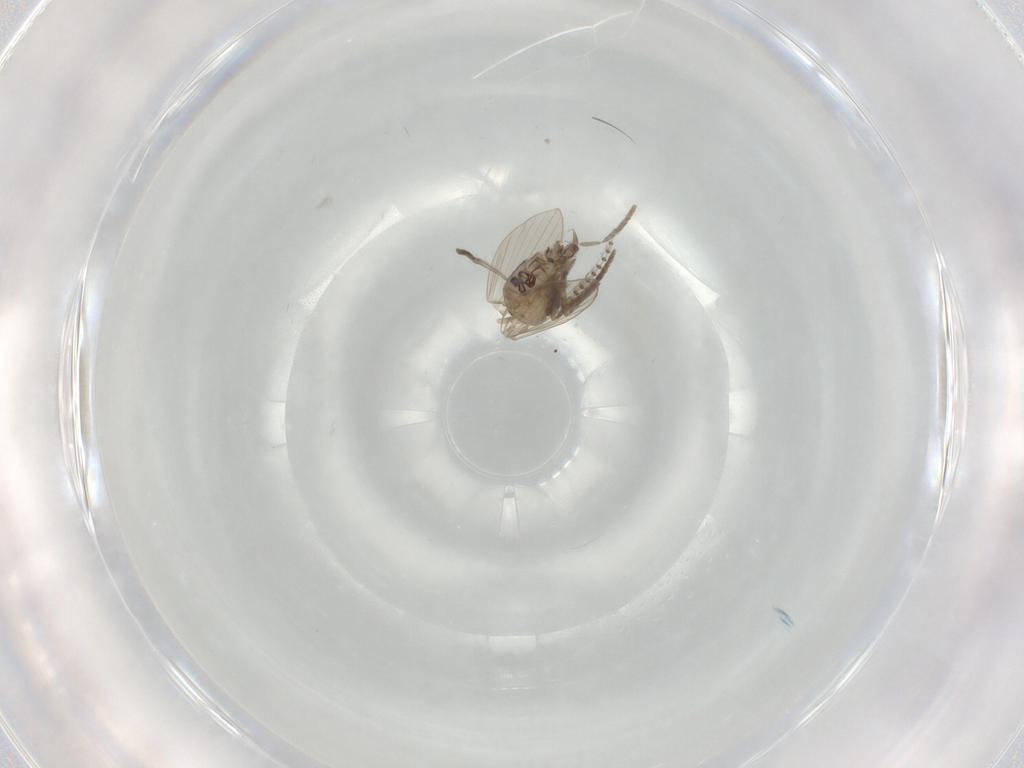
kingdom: Animalia
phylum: Arthropoda
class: Insecta
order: Diptera
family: Psychodidae
